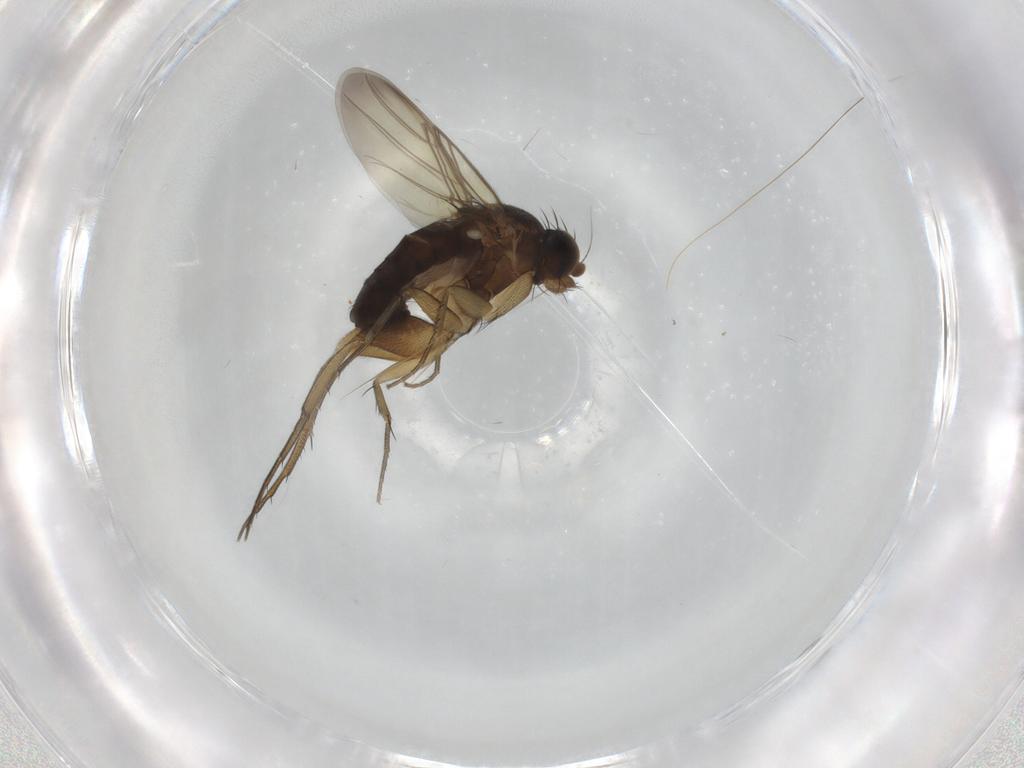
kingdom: Animalia
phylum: Arthropoda
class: Insecta
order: Diptera
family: Phoridae
